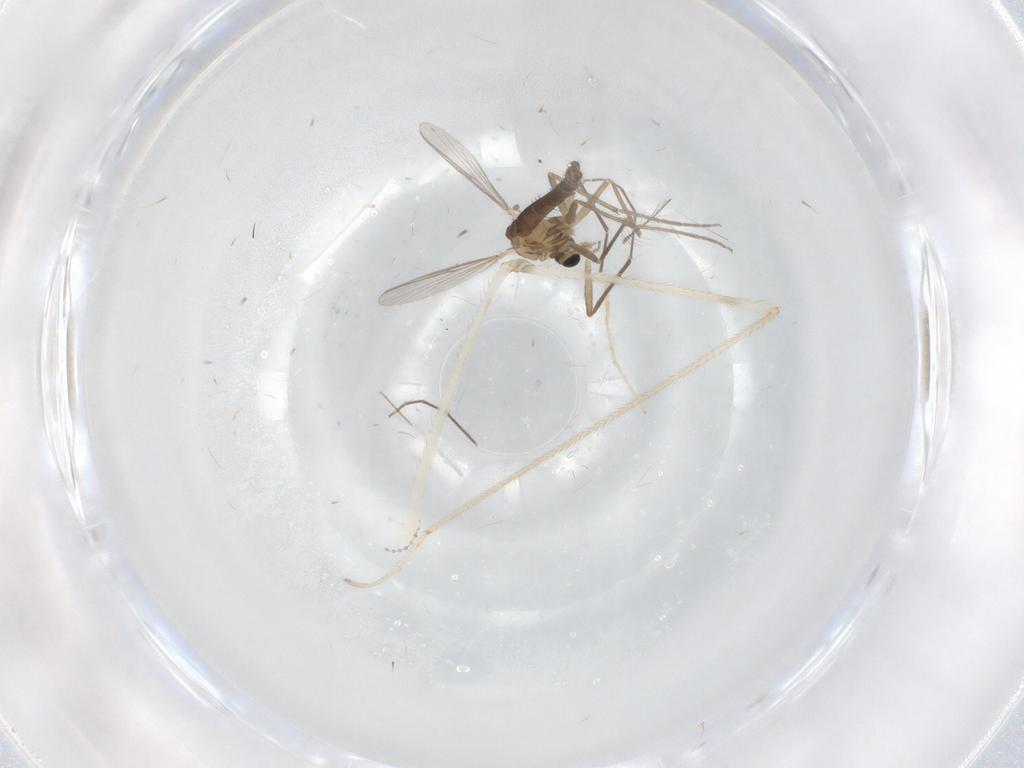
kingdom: Animalia
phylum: Arthropoda
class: Insecta
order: Diptera
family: Chironomidae
